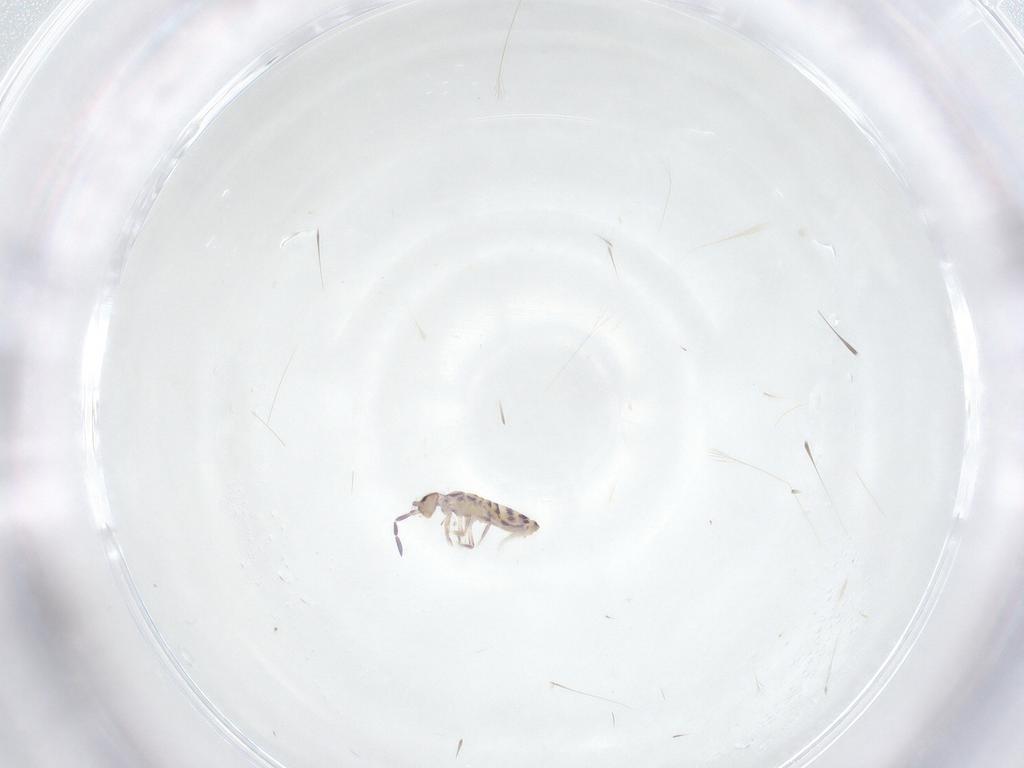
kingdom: Animalia
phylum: Arthropoda
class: Collembola
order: Entomobryomorpha
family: Entomobryidae
